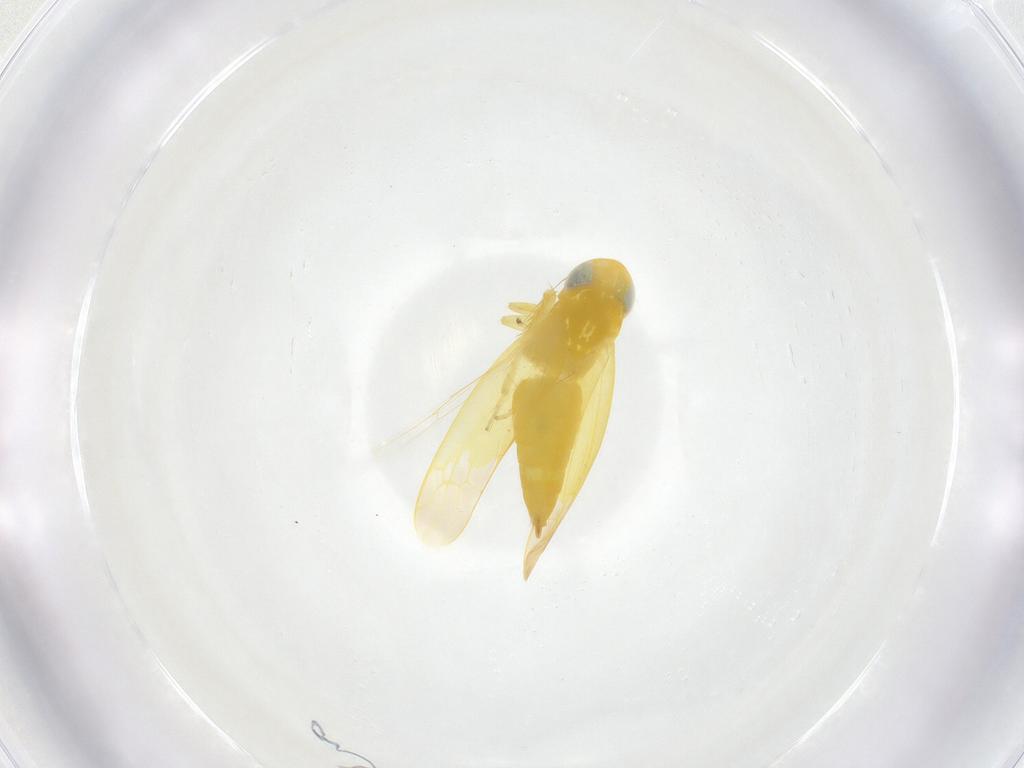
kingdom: Animalia
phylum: Arthropoda
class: Insecta
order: Hemiptera
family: Cicadellidae
